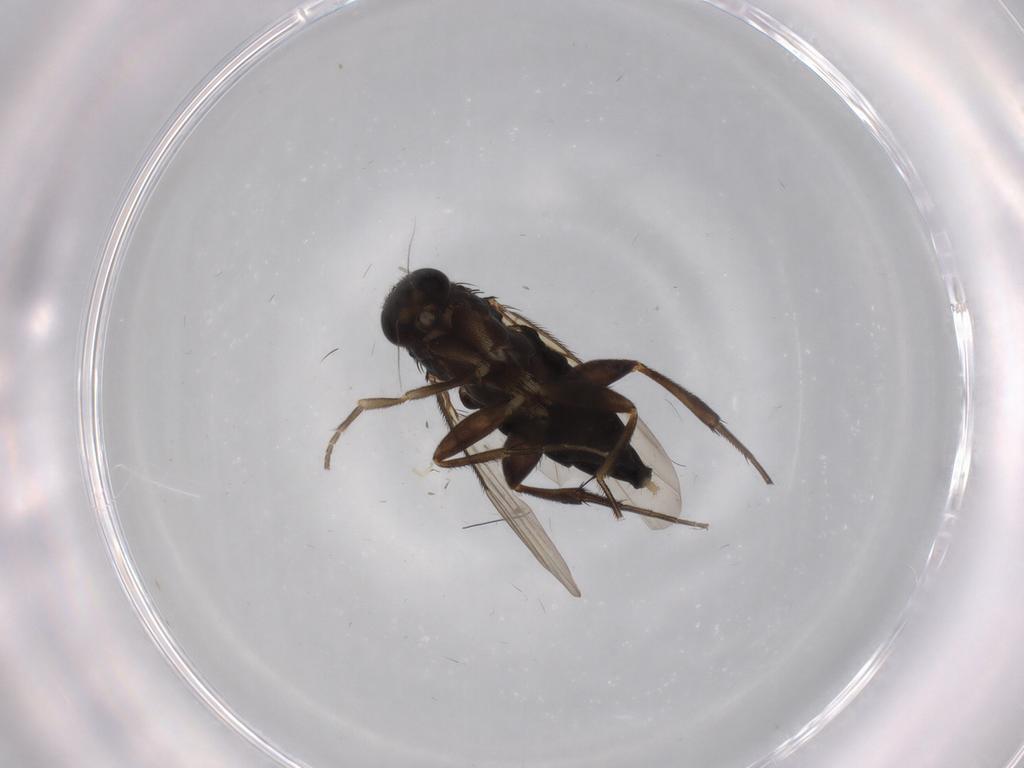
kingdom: Animalia
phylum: Arthropoda
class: Insecta
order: Diptera
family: Phoridae
